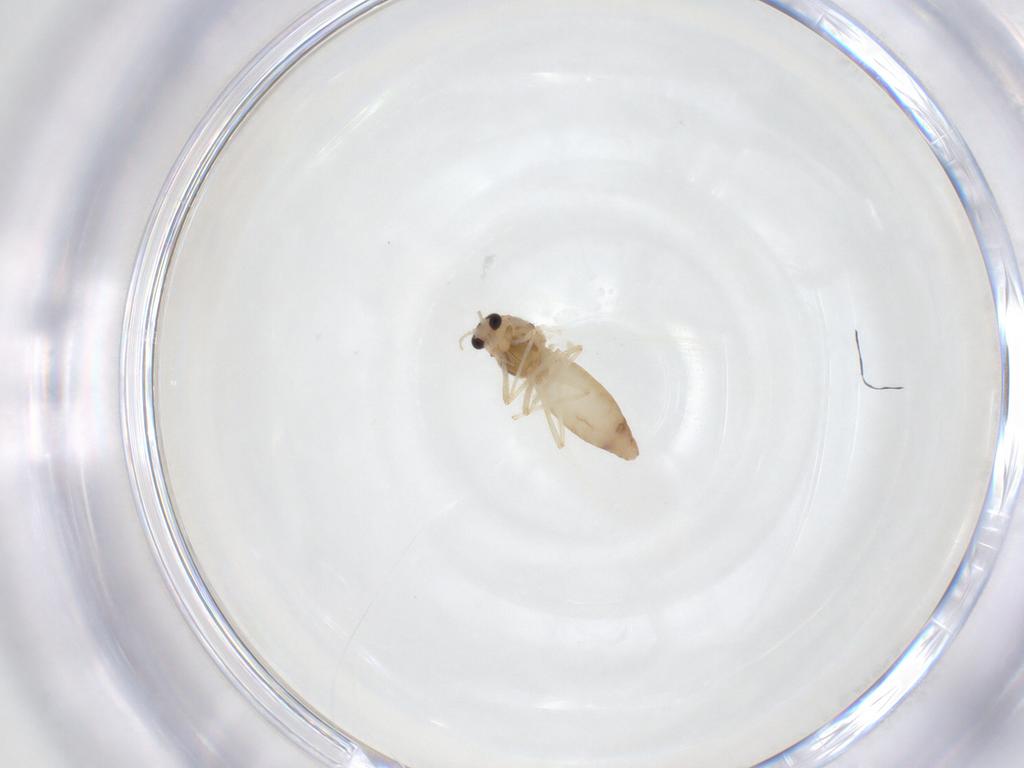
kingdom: Animalia
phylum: Arthropoda
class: Insecta
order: Diptera
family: Chironomidae
